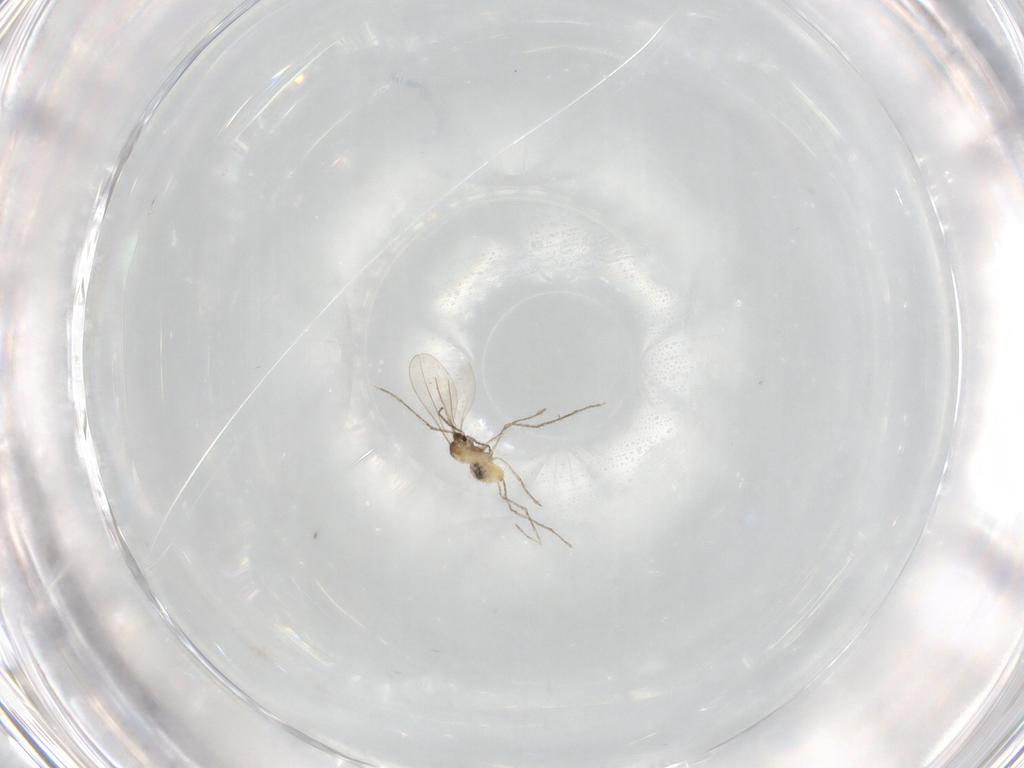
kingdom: Animalia
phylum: Arthropoda
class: Insecta
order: Diptera
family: Cecidomyiidae
